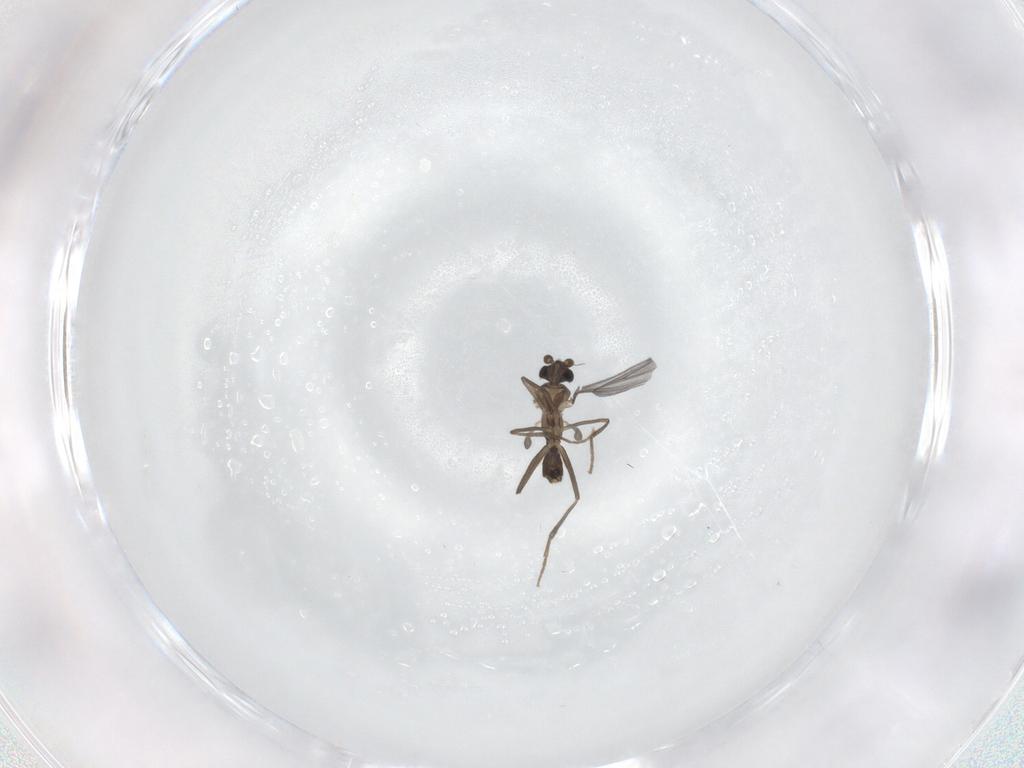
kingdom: Animalia
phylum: Arthropoda
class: Insecta
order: Diptera
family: Phoridae
